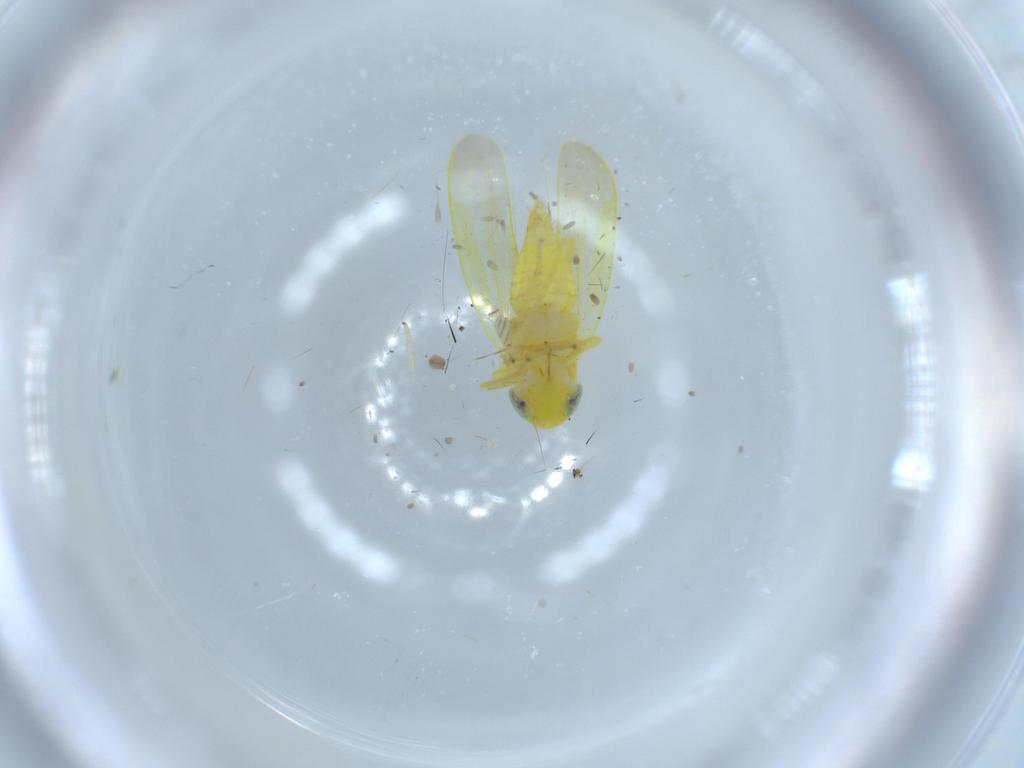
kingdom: Animalia
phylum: Arthropoda
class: Insecta
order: Hemiptera
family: Cicadellidae
